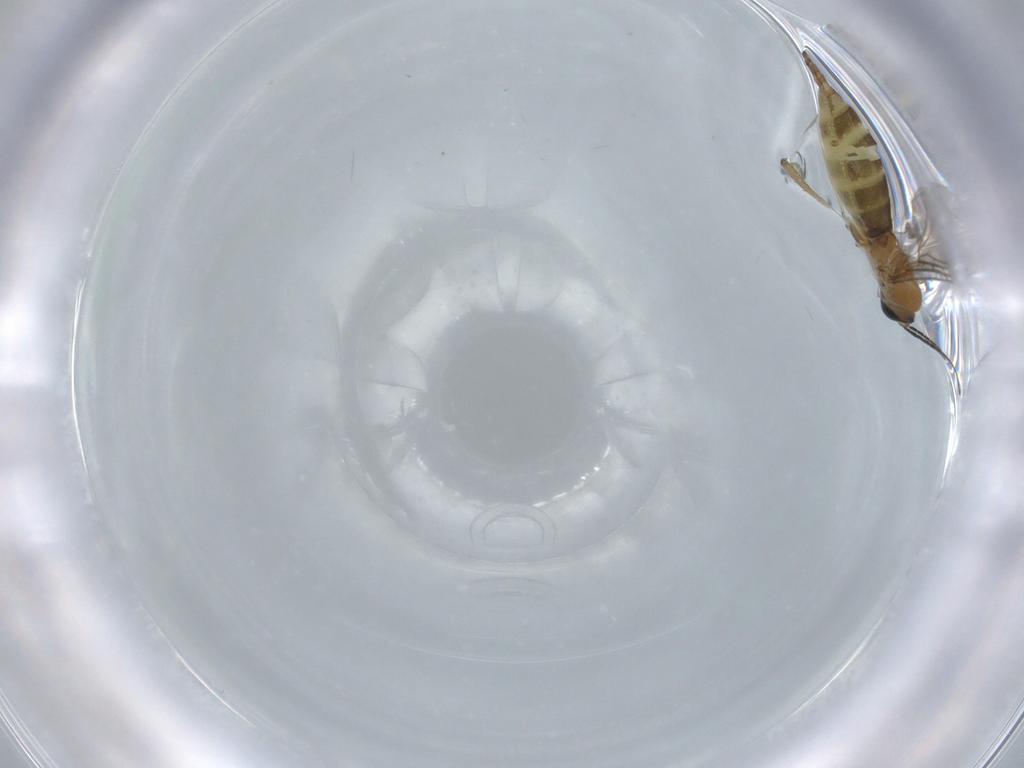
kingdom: Animalia
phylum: Arthropoda
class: Insecta
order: Diptera
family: Sciaridae
